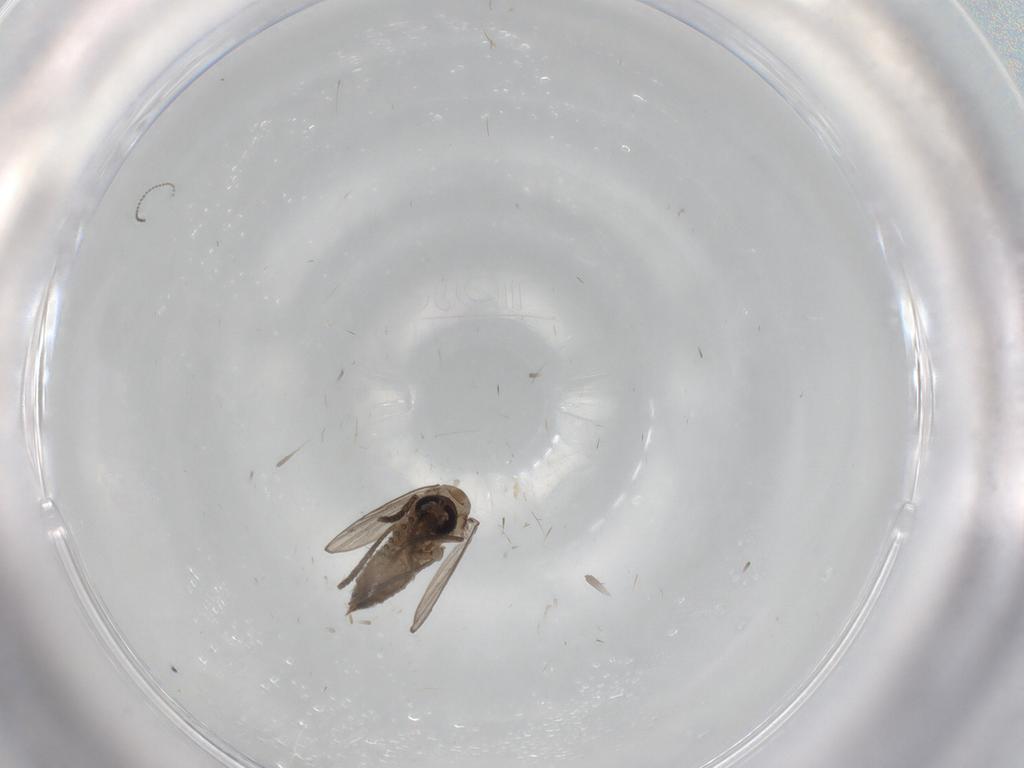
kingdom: Animalia
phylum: Arthropoda
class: Insecta
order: Diptera
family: Psychodidae
